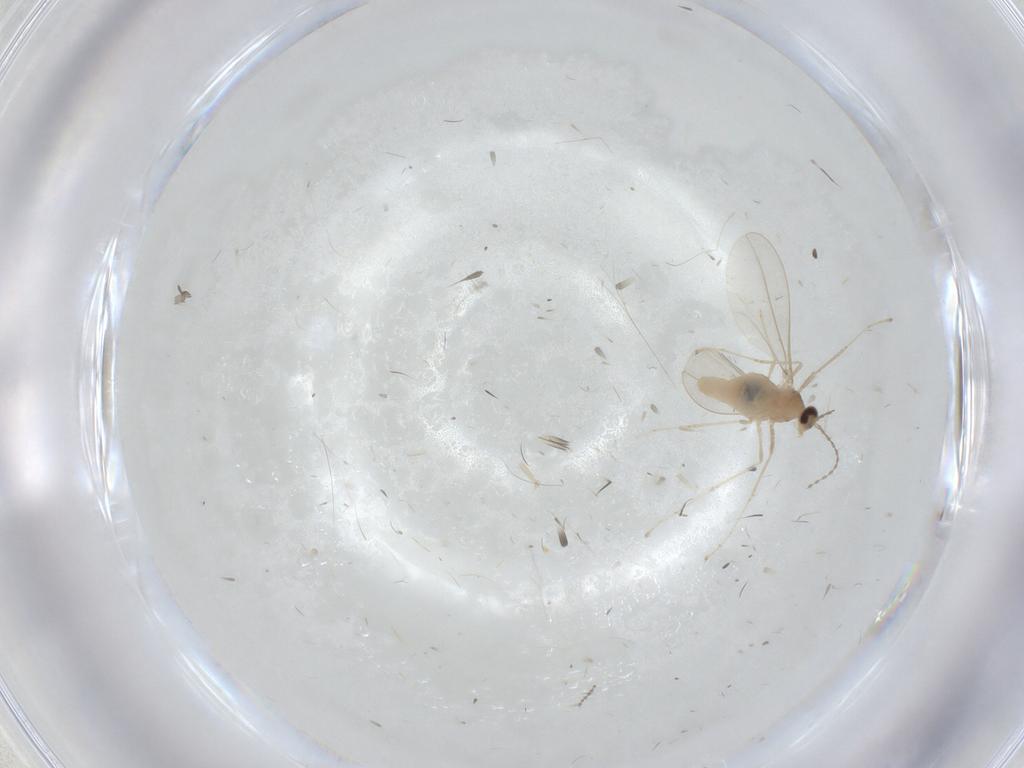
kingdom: Animalia
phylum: Arthropoda
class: Insecta
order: Diptera
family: Cecidomyiidae
